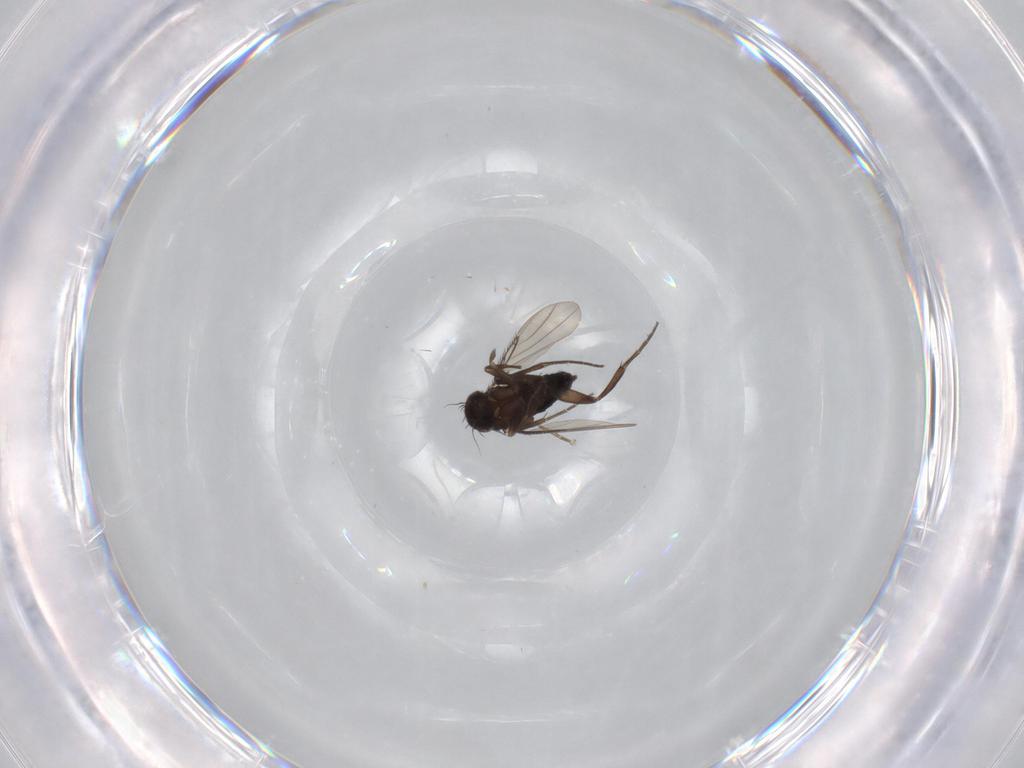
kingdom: Animalia
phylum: Arthropoda
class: Insecta
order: Diptera
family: Phoridae
